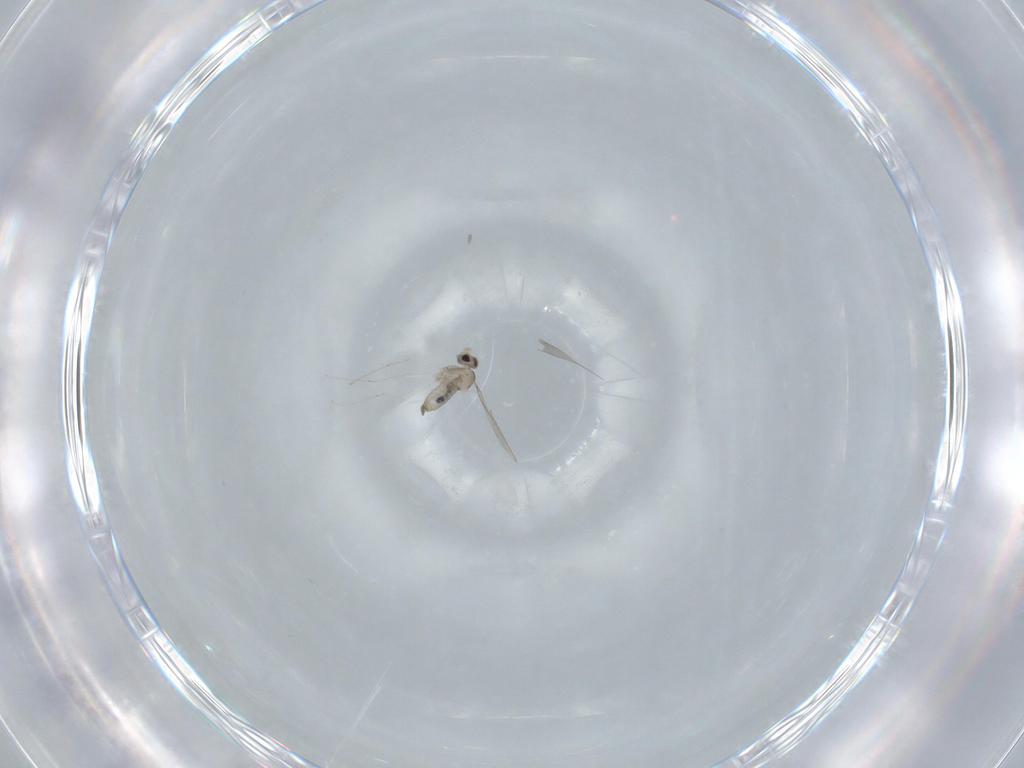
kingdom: Animalia
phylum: Arthropoda
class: Insecta
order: Diptera
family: Cecidomyiidae
